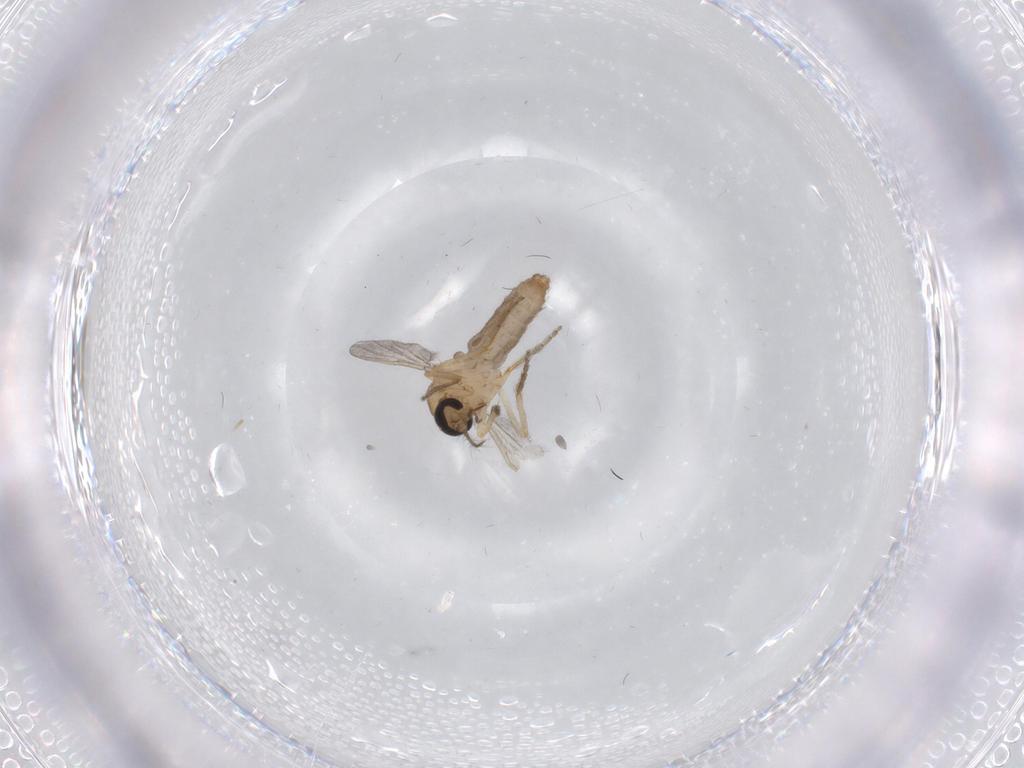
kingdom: Animalia
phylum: Arthropoda
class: Insecta
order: Diptera
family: Ceratopogonidae
